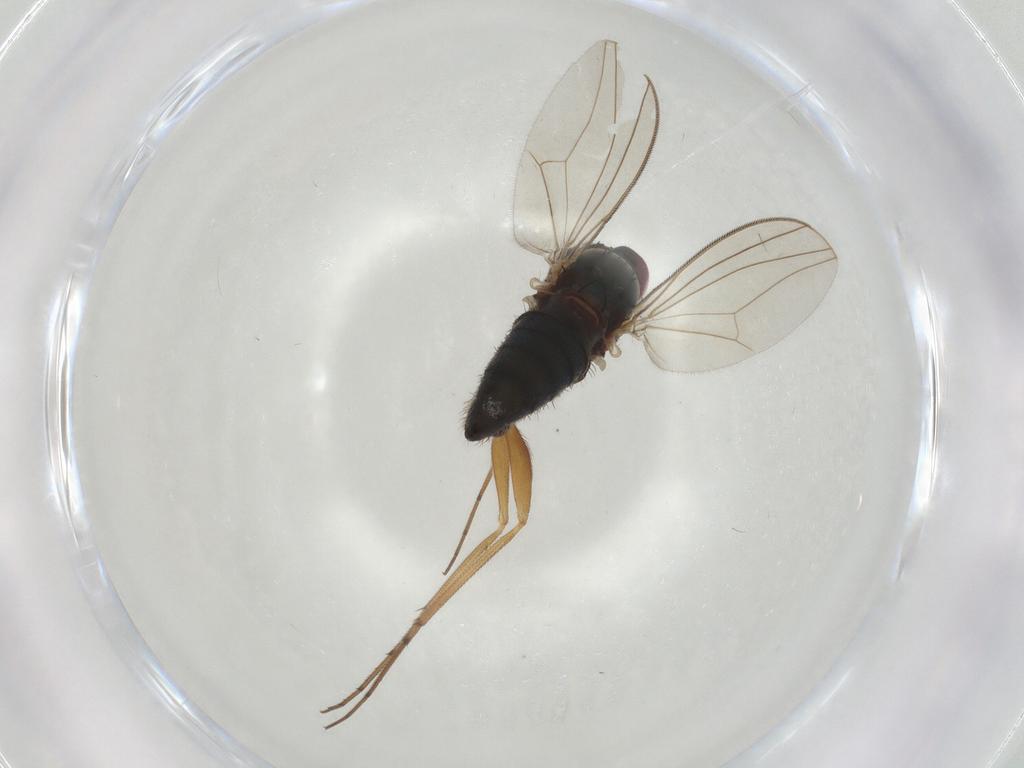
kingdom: Animalia
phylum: Arthropoda
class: Insecta
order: Diptera
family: Dolichopodidae
